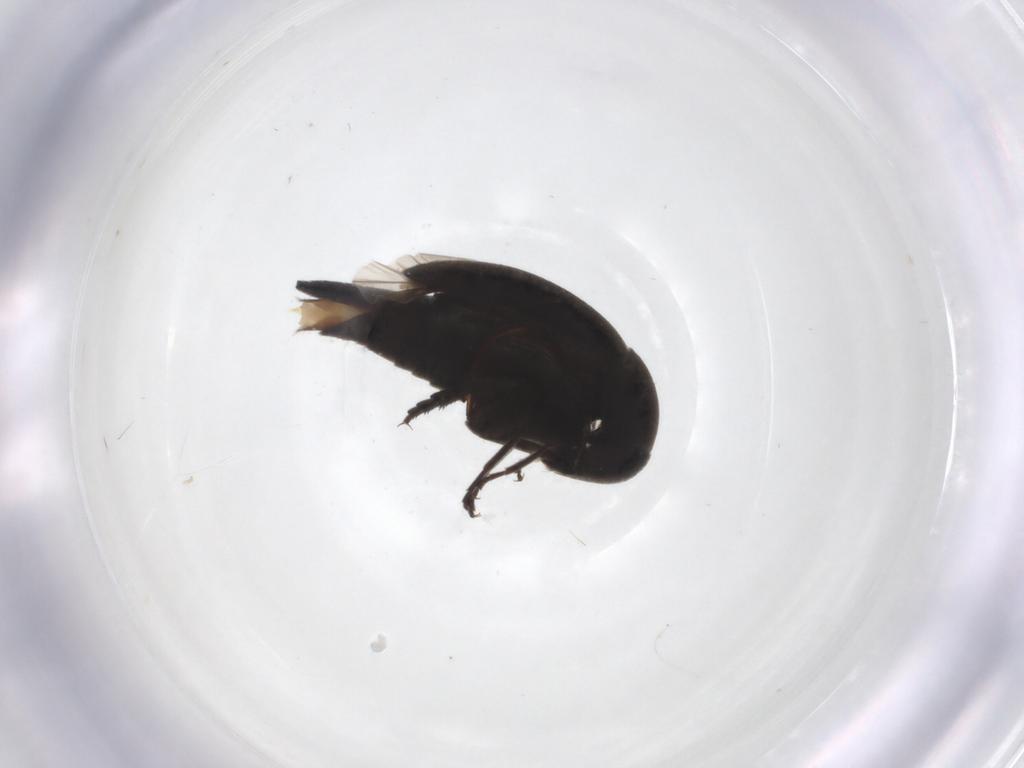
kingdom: Animalia
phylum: Arthropoda
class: Insecta
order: Coleoptera
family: Mordellidae
